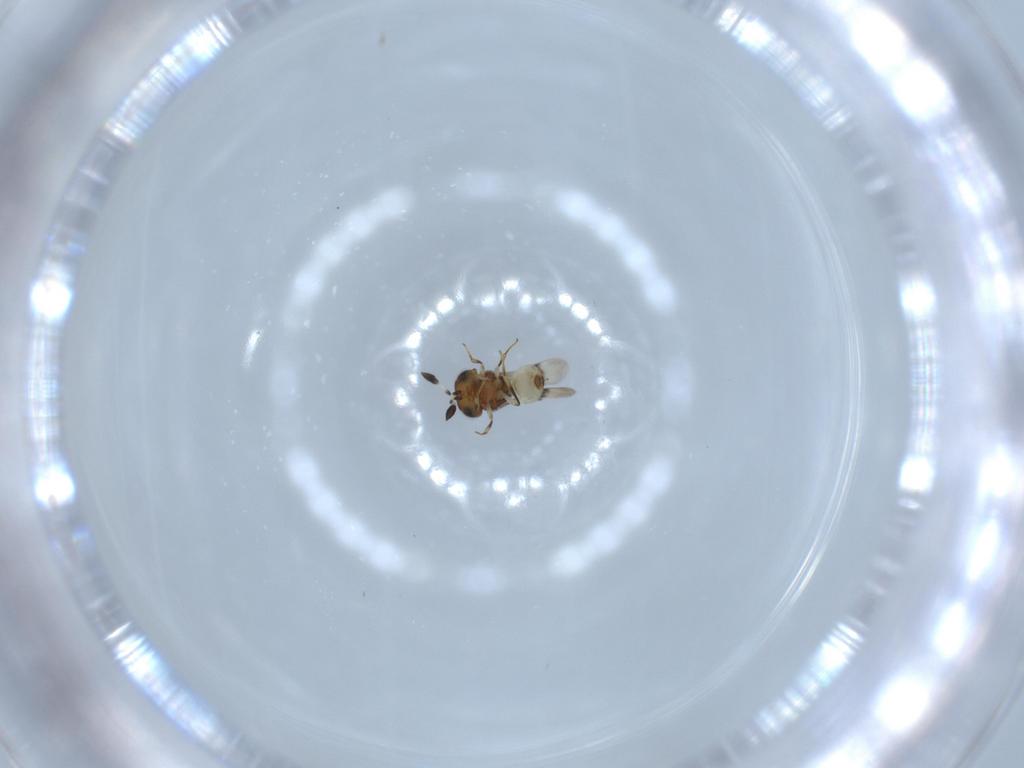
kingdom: Animalia
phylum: Arthropoda
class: Arachnida
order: Araneae
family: Pholcidae
